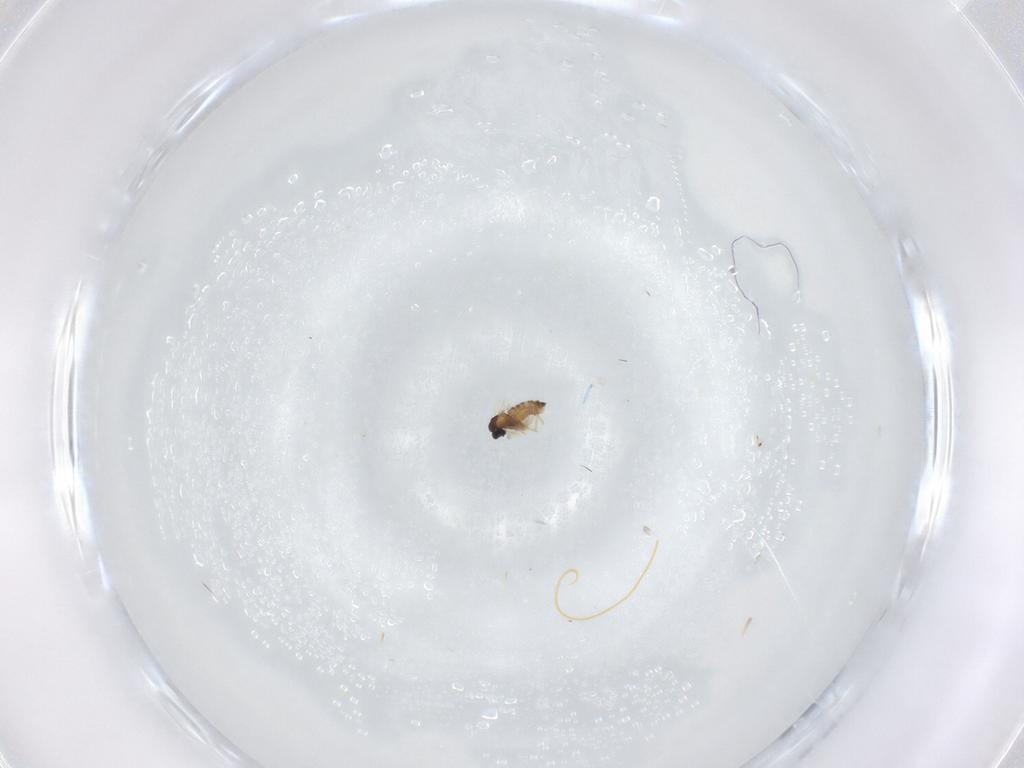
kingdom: Animalia
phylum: Arthropoda
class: Insecta
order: Diptera
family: Cecidomyiidae
